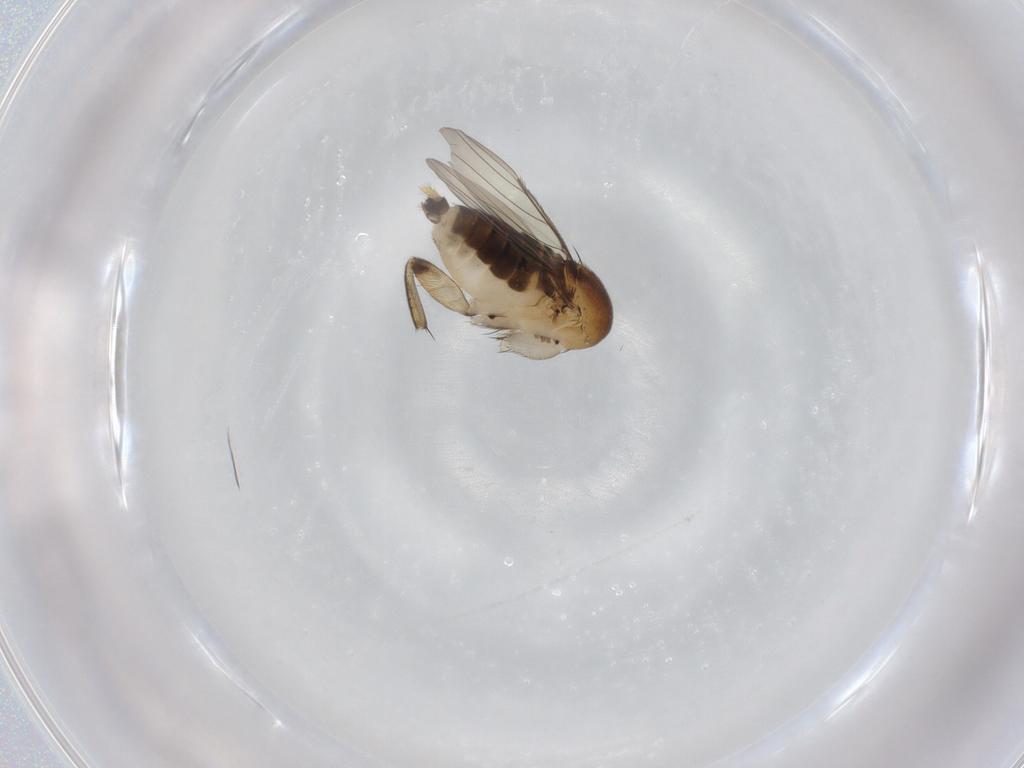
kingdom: Animalia
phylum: Arthropoda
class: Insecta
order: Diptera
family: Phoridae
